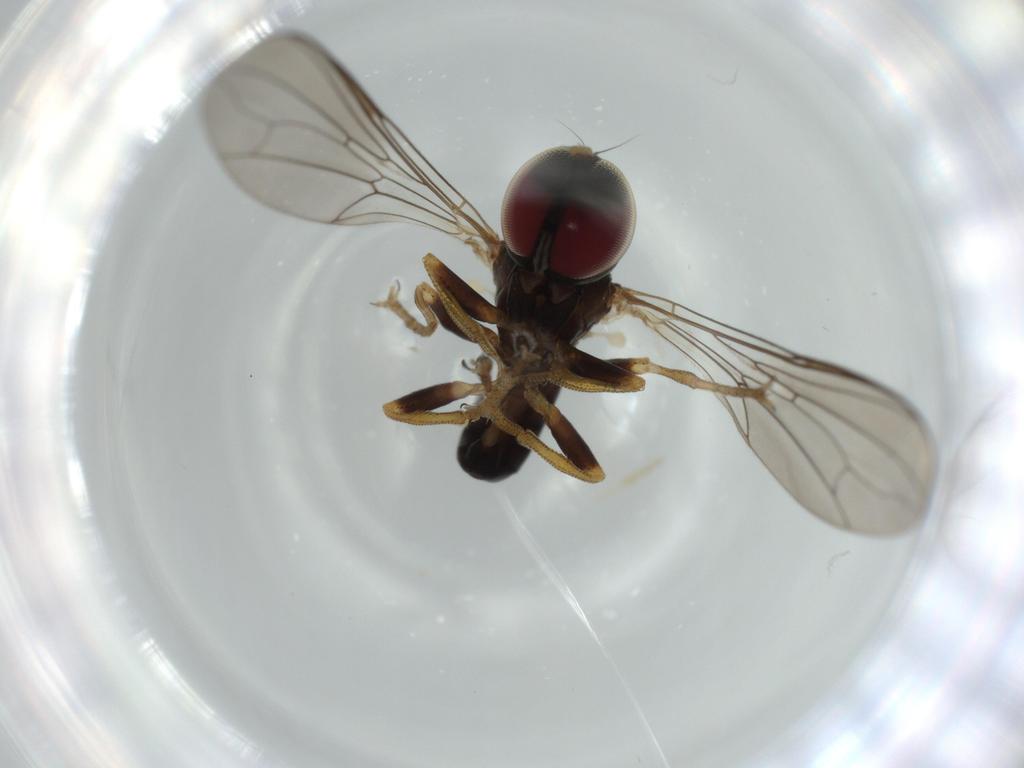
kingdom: Animalia
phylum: Arthropoda
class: Insecta
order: Diptera
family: Pipunculidae
